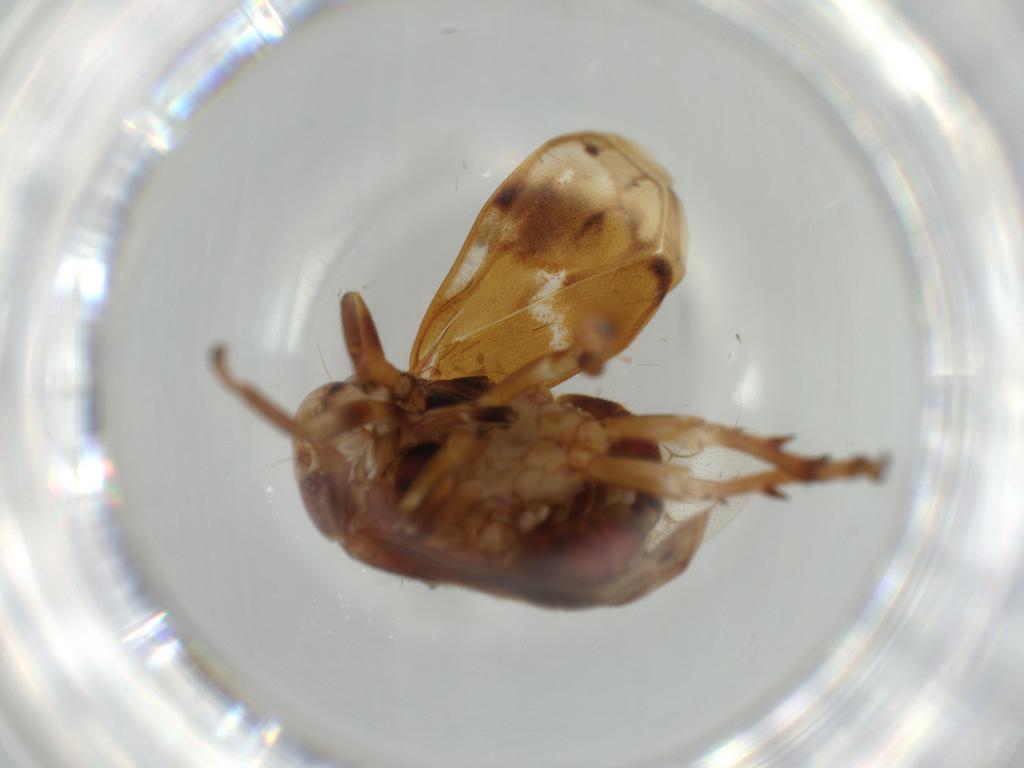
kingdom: Animalia
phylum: Arthropoda
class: Insecta
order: Hemiptera
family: Clastopteridae
